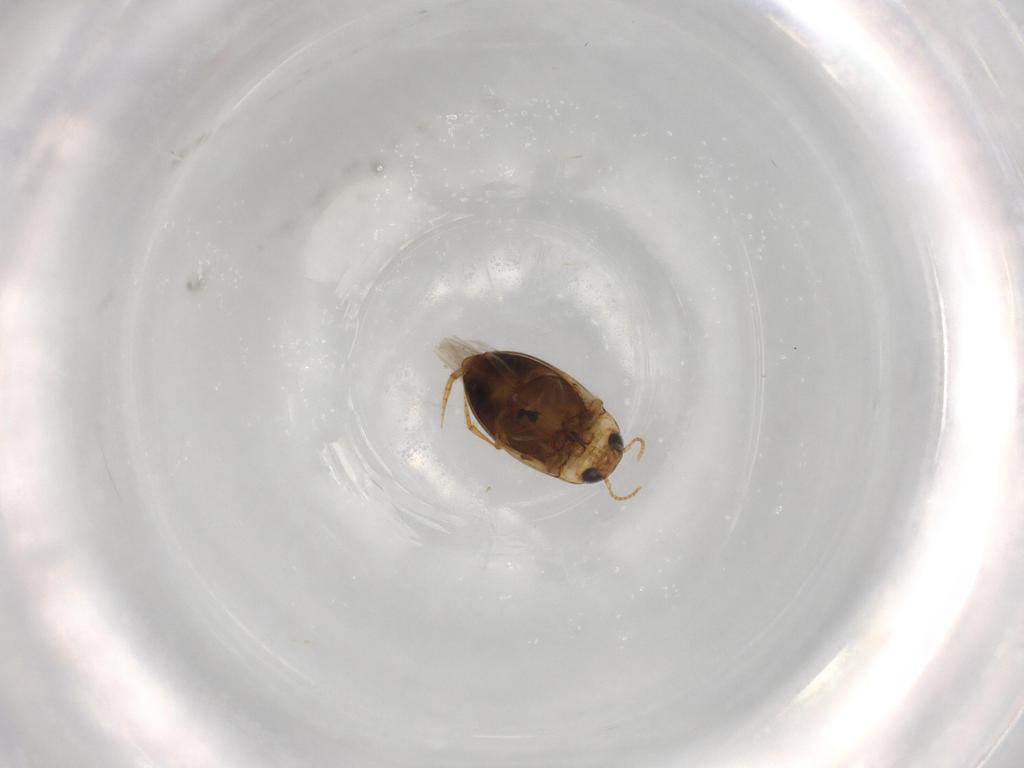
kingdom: Animalia
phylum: Arthropoda
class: Insecta
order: Coleoptera
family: Dytiscidae
